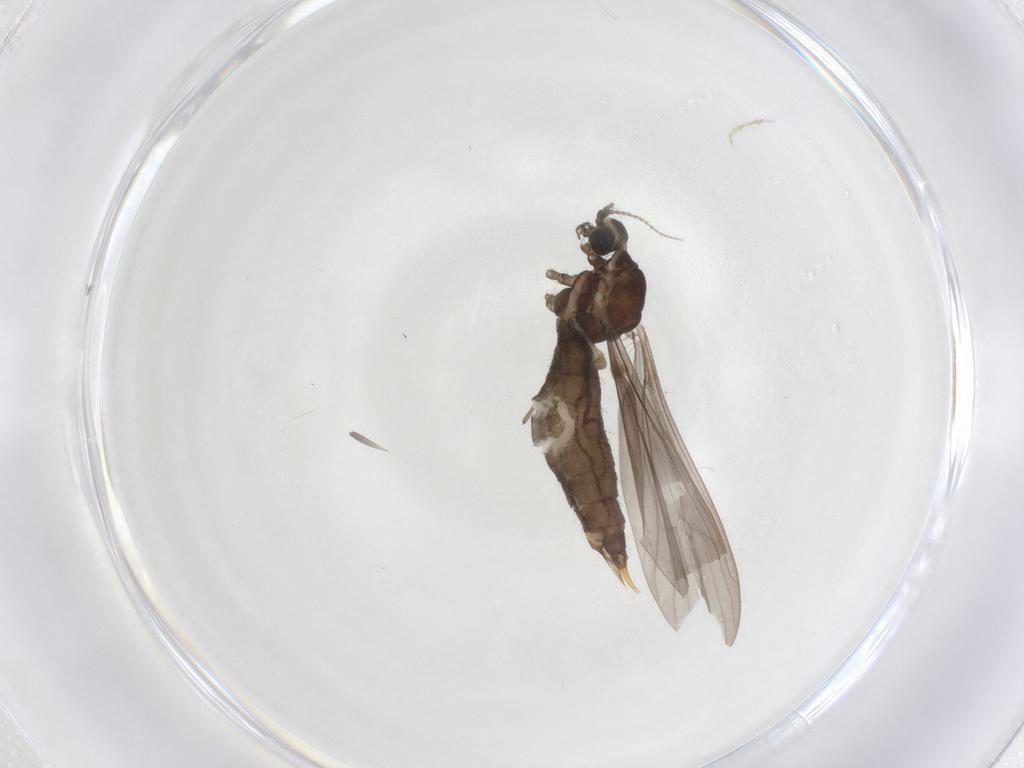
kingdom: Animalia
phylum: Arthropoda
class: Insecta
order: Diptera
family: Limoniidae
